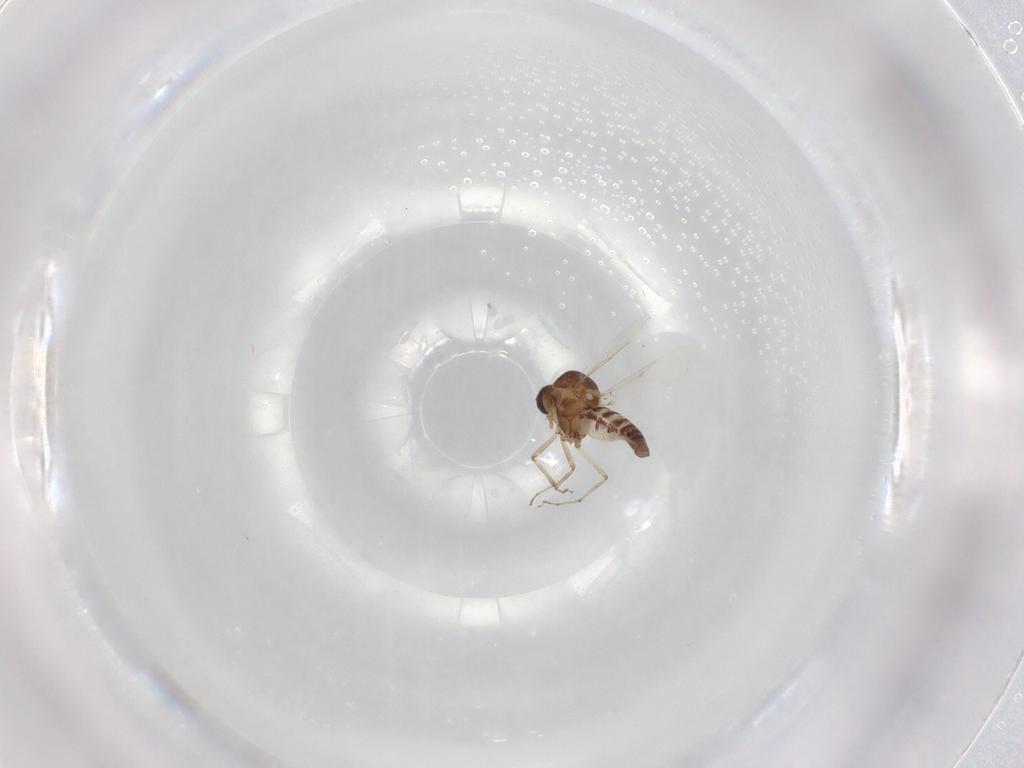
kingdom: Animalia
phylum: Arthropoda
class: Insecta
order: Diptera
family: Ceratopogonidae
